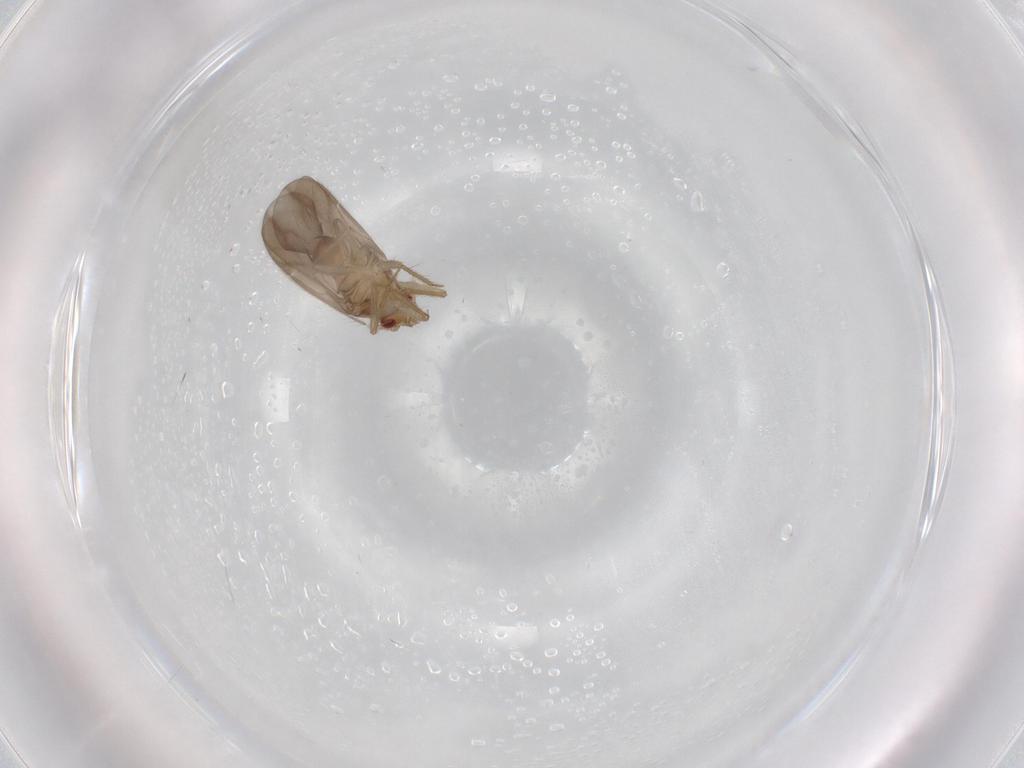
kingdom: Animalia
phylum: Arthropoda
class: Insecta
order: Hemiptera
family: Ceratocombidae
